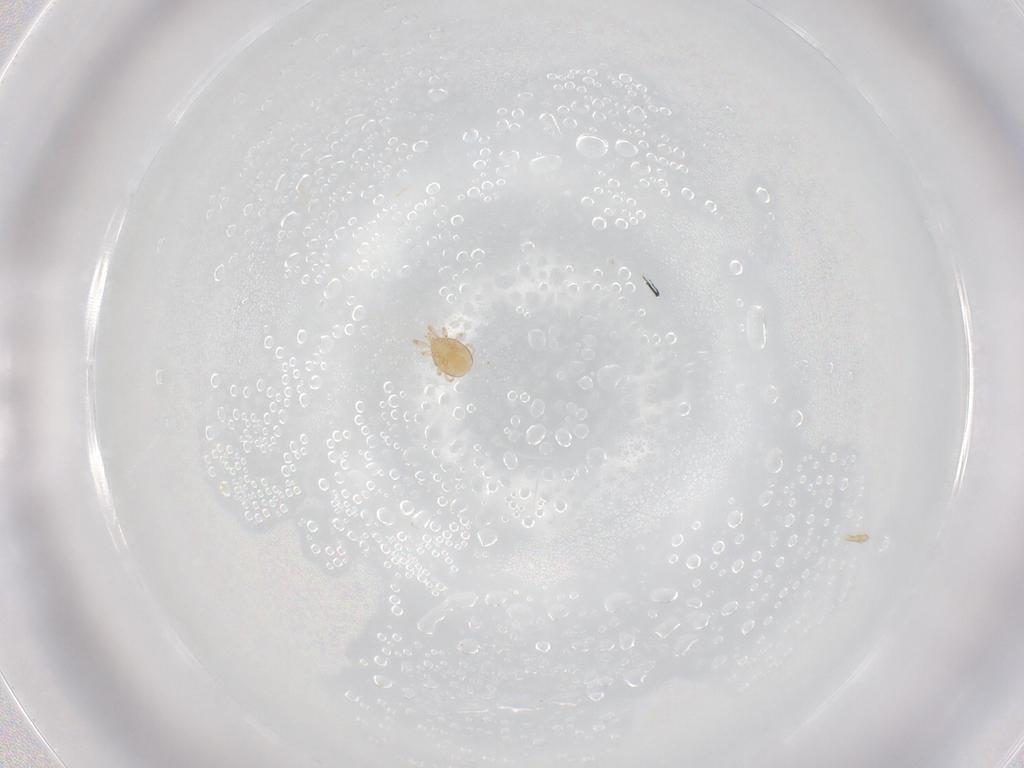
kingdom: Animalia
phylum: Arthropoda
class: Arachnida
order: Mesostigmata
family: Phytoseiidae
